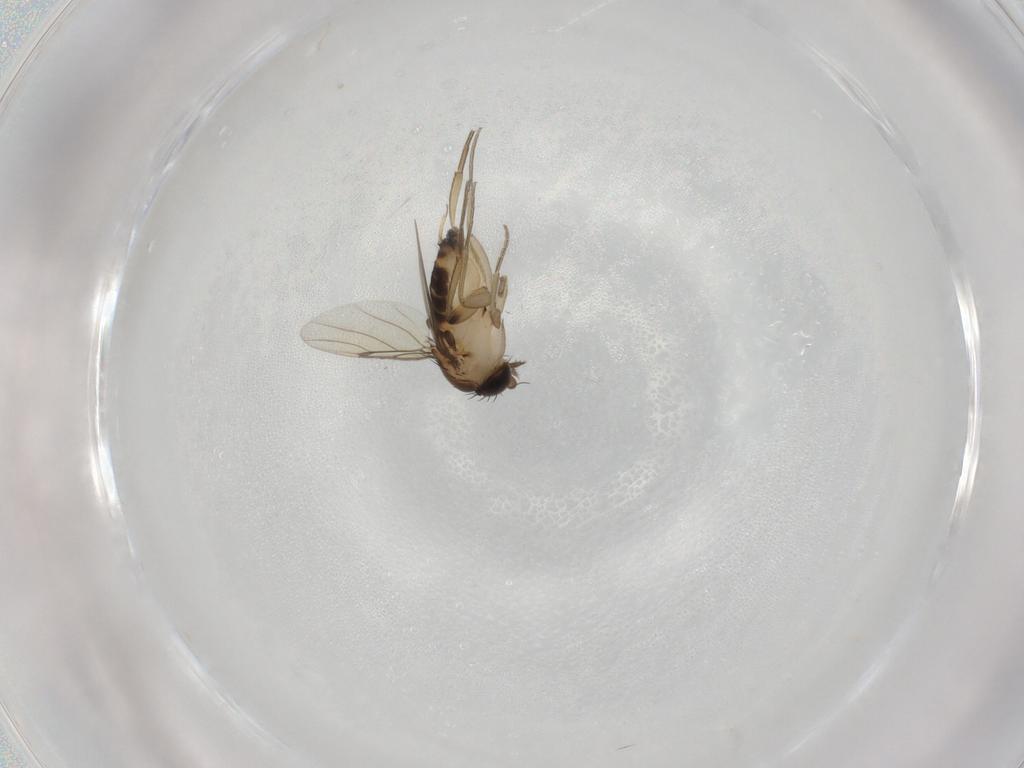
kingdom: Animalia
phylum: Arthropoda
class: Insecta
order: Diptera
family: Phoridae
